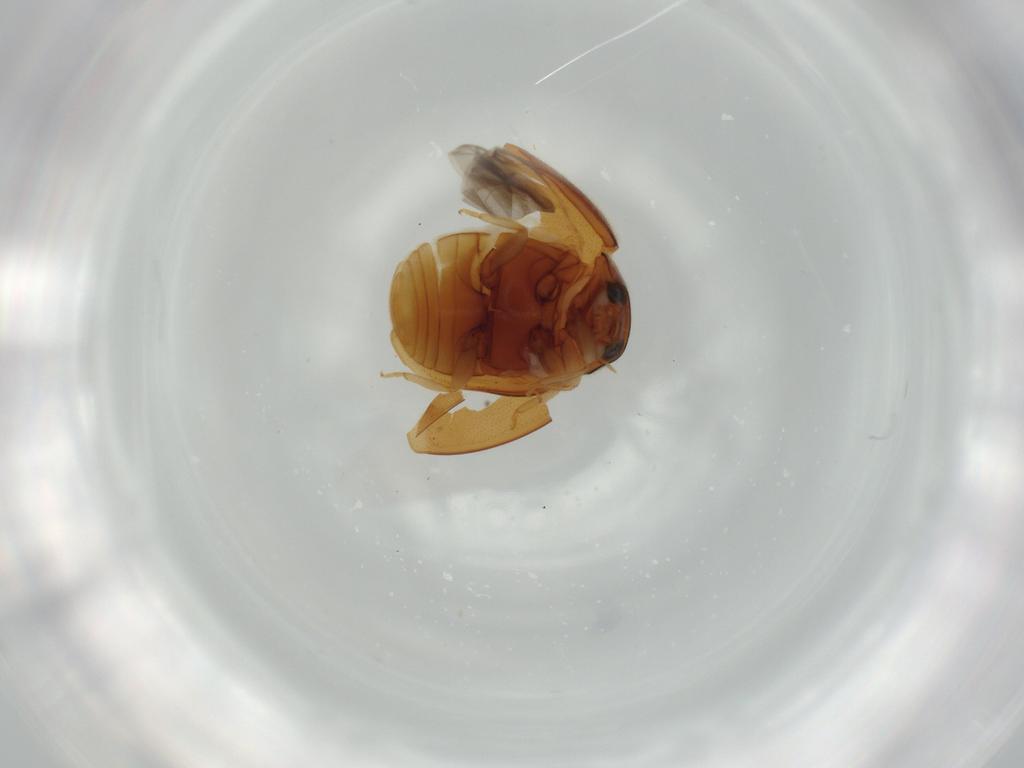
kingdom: Animalia
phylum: Arthropoda
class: Insecta
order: Coleoptera
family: Coccinellidae
